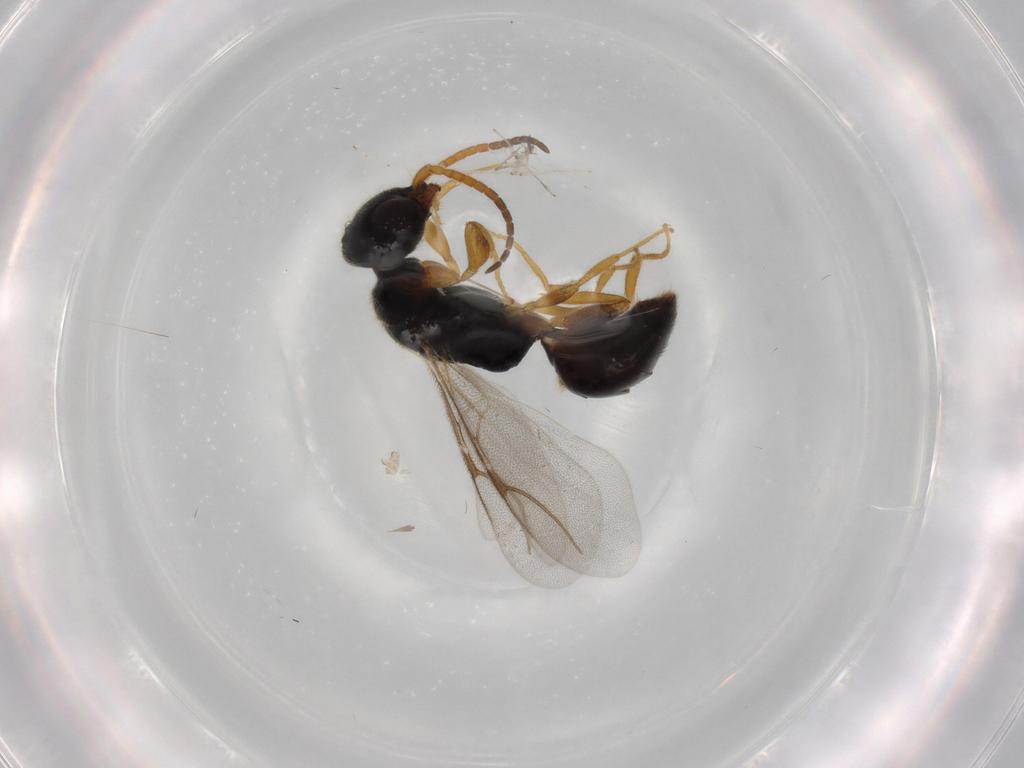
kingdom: Animalia
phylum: Arthropoda
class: Insecta
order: Hymenoptera
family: Bethylidae
